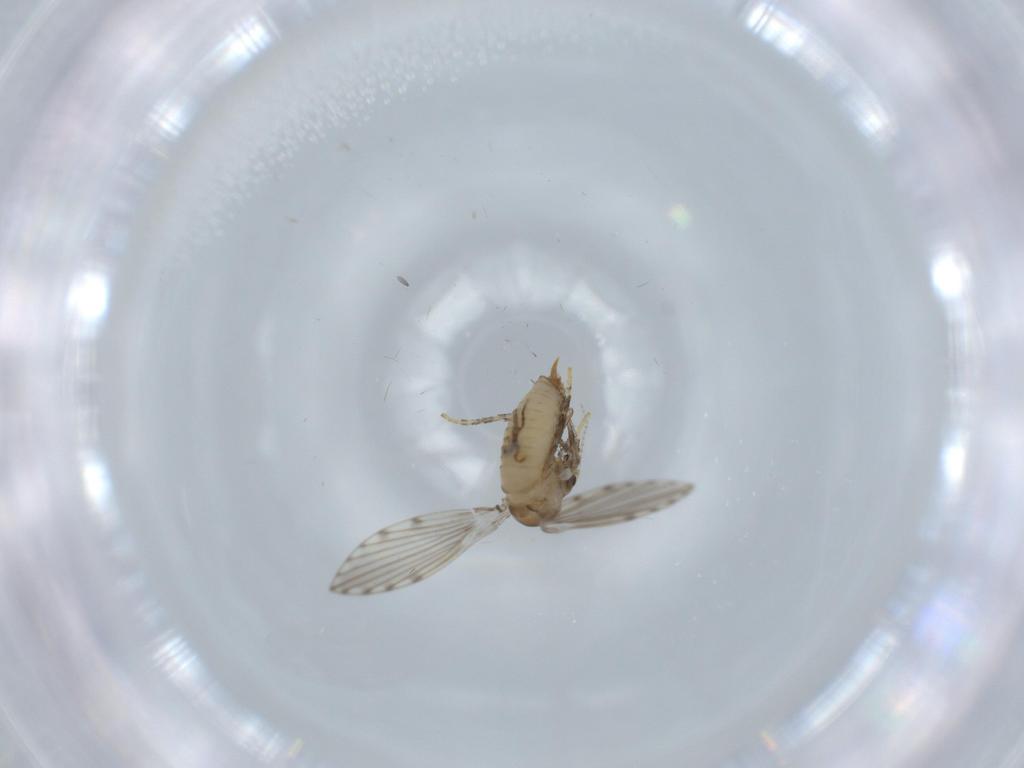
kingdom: Animalia
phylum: Arthropoda
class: Insecta
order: Diptera
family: Psychodidae
